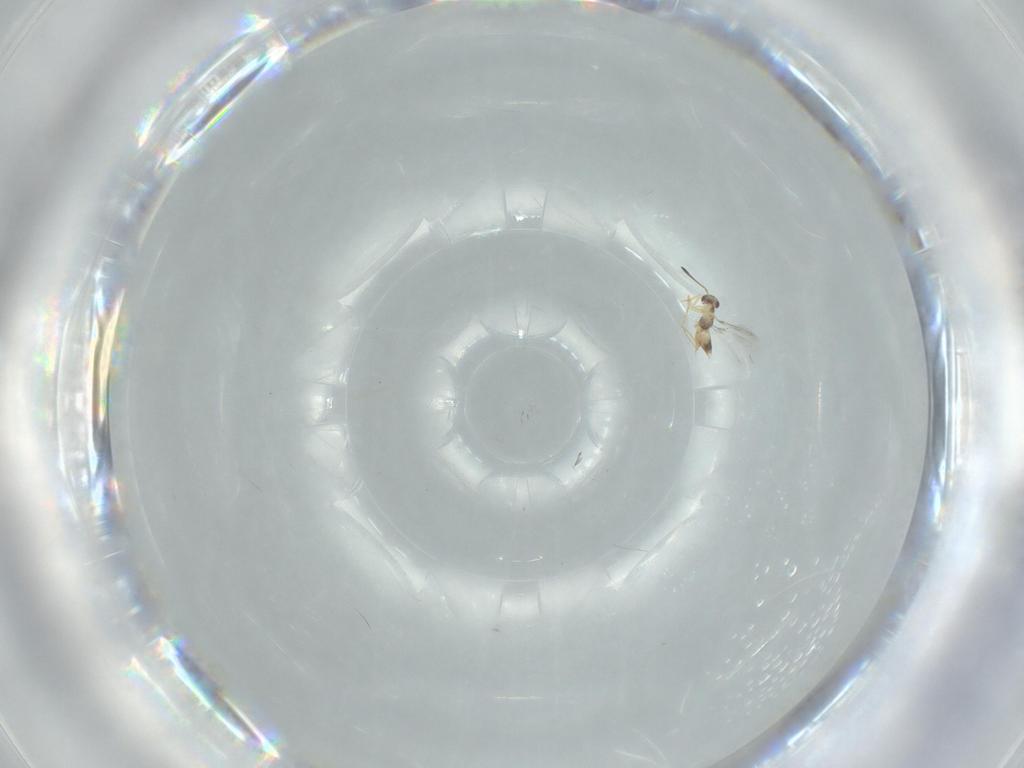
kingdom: Animalia
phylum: Arthropoda
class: Insecta
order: Hymenoptera
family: Mymaridae
